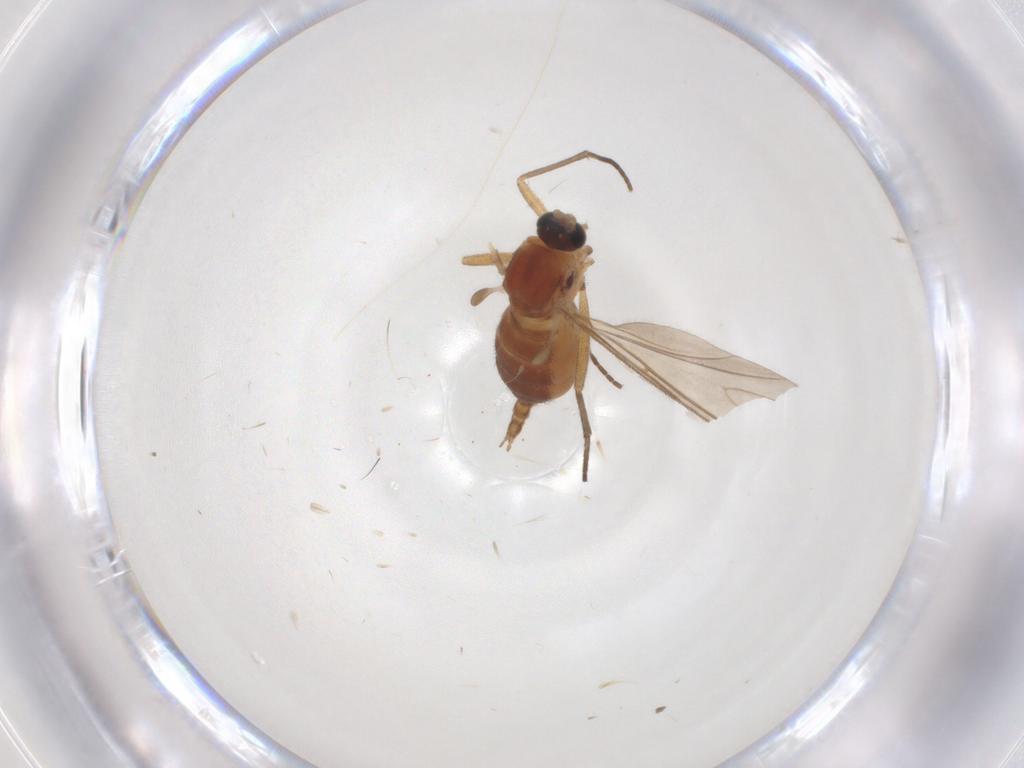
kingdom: Animalia
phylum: Arthropoda
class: Insecta
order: Diptera
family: Sciaridae
